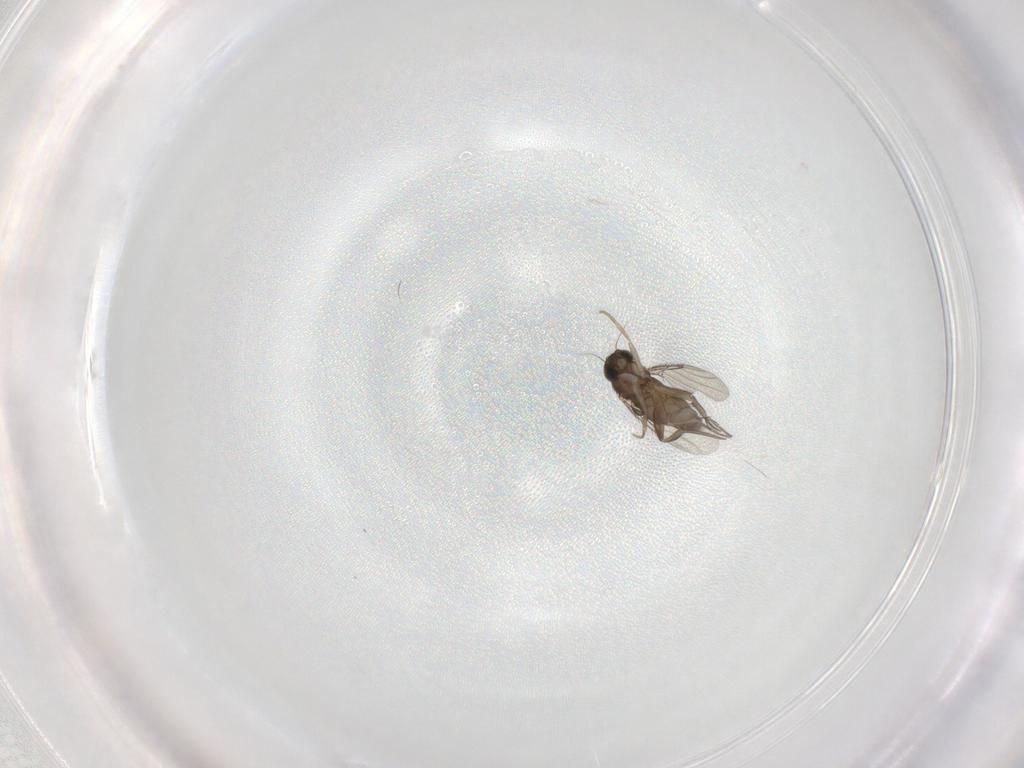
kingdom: Animalia
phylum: Arthropoda
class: Insecta
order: Diptera
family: Phoridae
